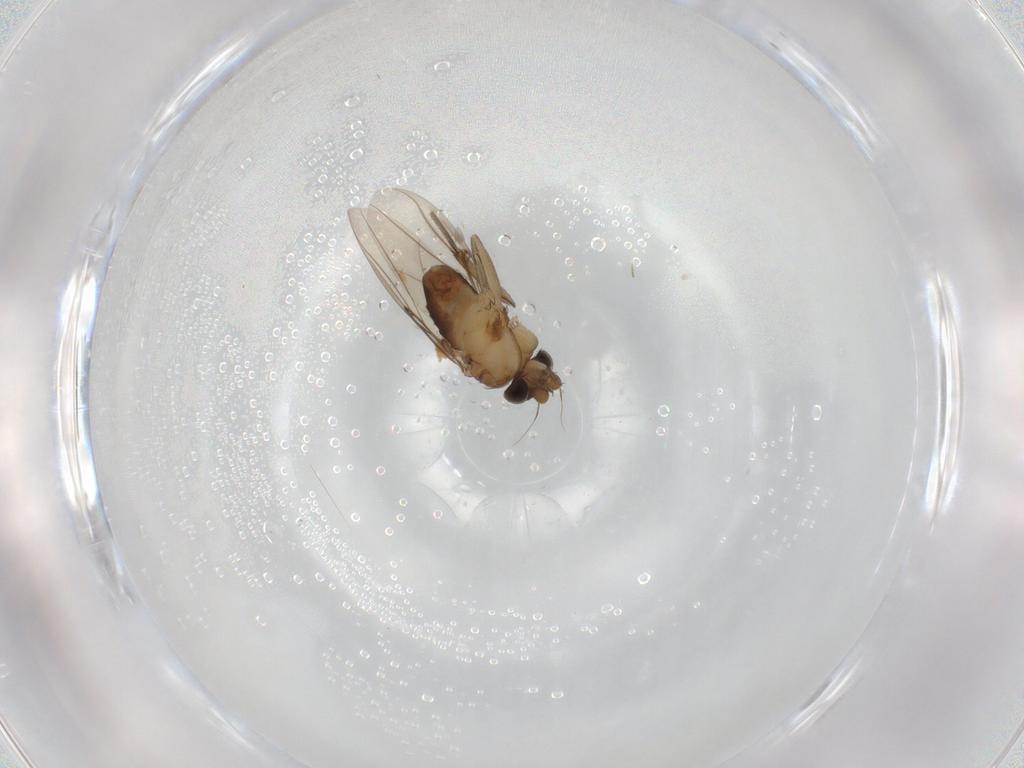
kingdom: Animalia
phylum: Arthropoda
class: Insecta
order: Diptera
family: Phoridae
